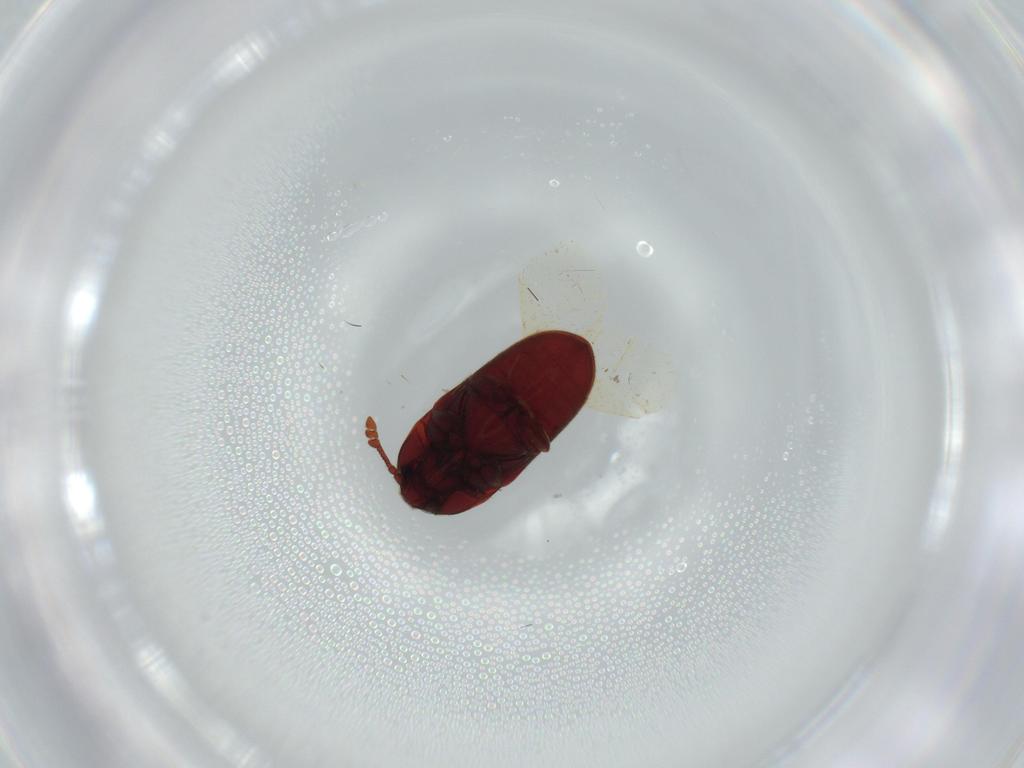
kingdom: Animalia
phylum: Arthropoda
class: Insecta
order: Coleoptera
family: Throscidae
